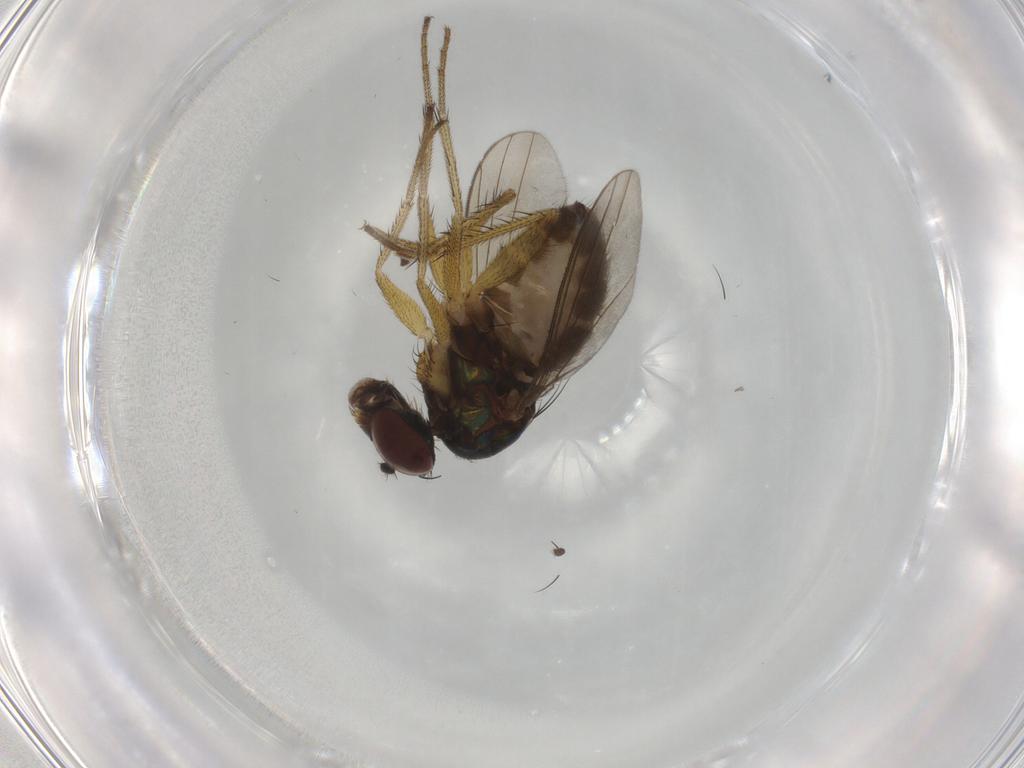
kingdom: Animalia
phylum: Arthropoda
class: Insecta
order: Diptera
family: Dolichopodidae
